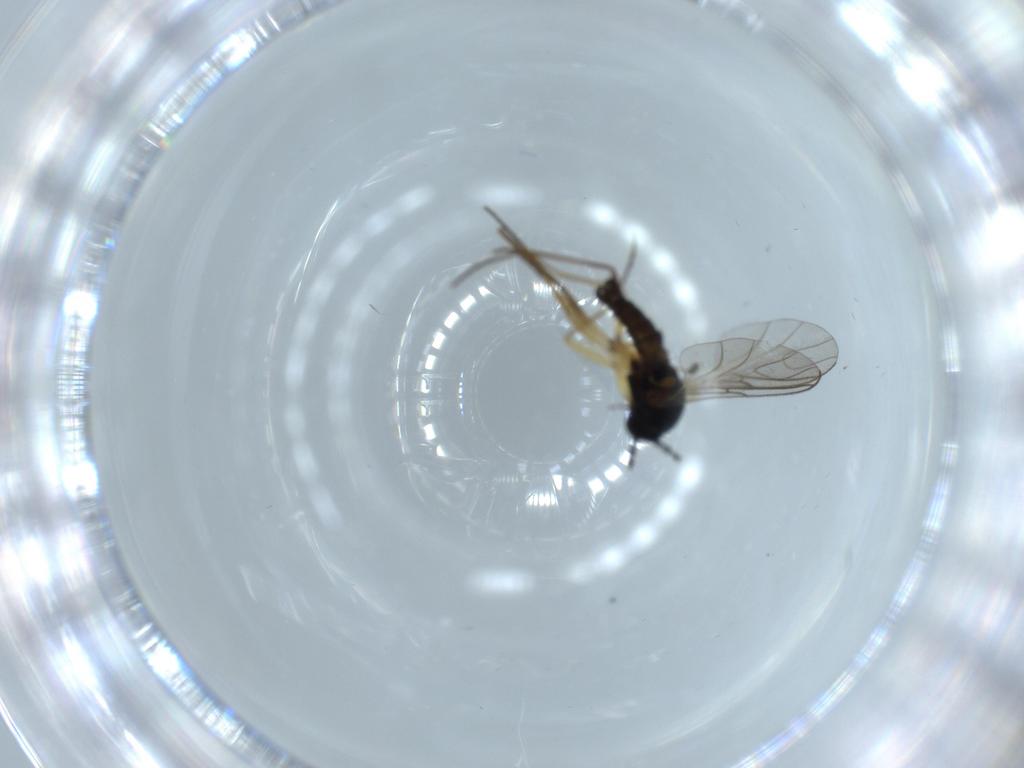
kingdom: Animalia
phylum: Arthropoda
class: Insecta
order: Diptera
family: Sciaridae
